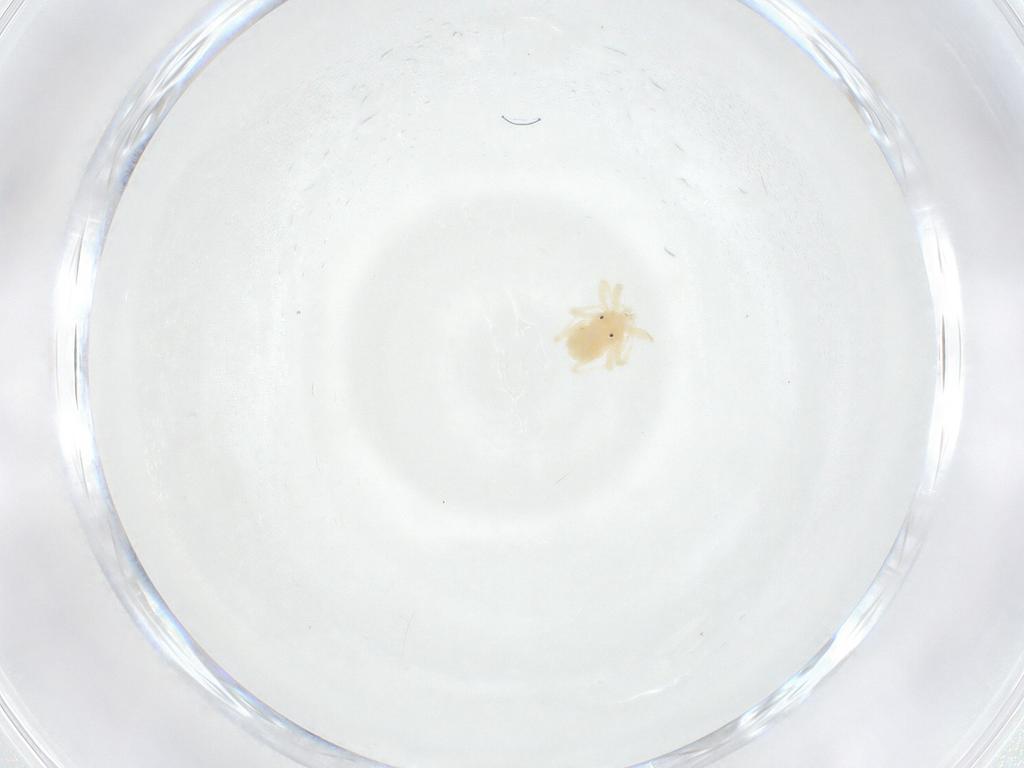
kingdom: Animalia
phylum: Arthropoda
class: Arachnida
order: Trombidiformes
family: Anystidae
